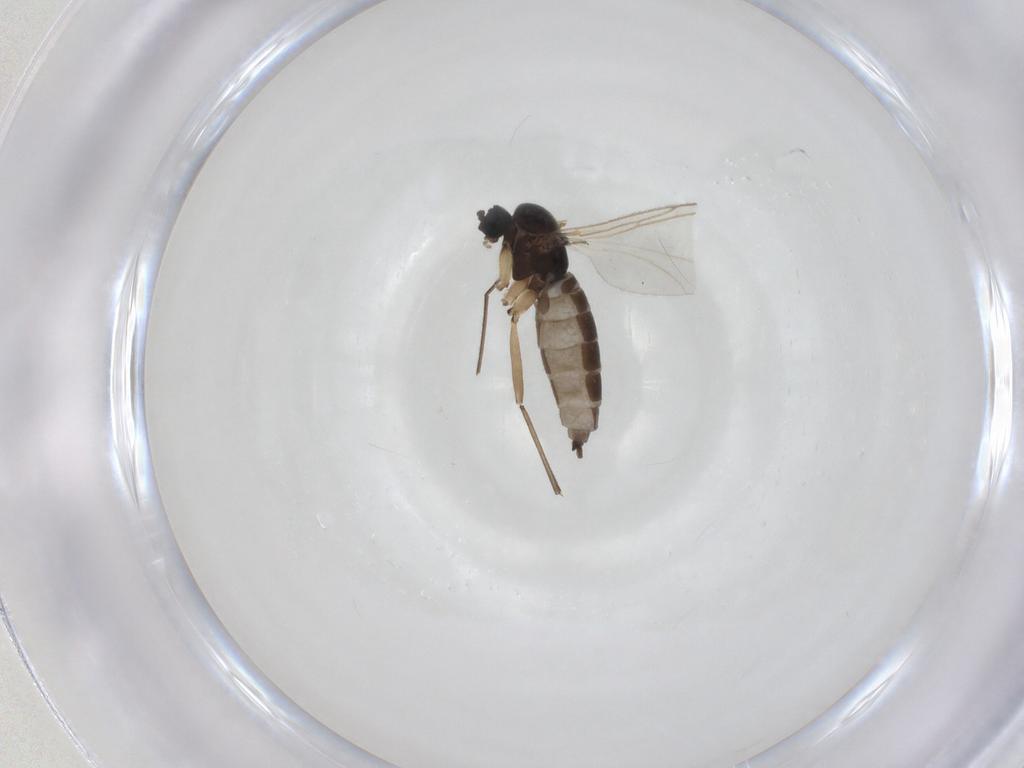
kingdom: Animalia
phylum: Arthropoda
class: Insecta
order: Diptera
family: Sciaridae
